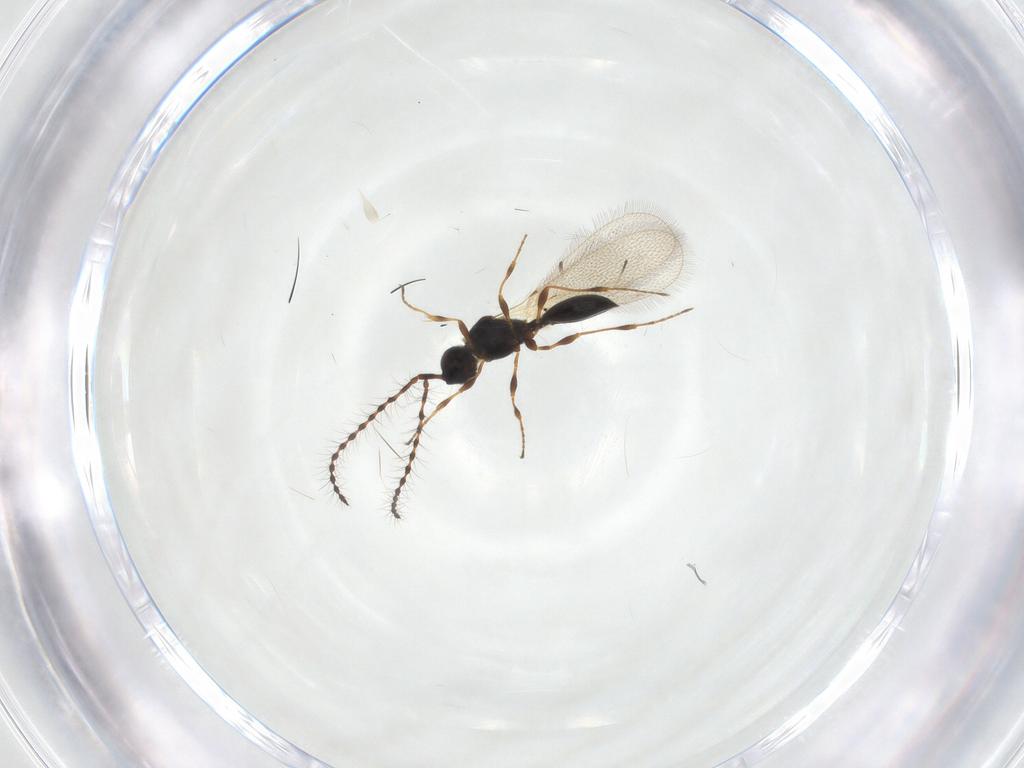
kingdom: Animalia
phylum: Arthropoda
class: Insecta
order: Hymenoptera
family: Diapriidae
